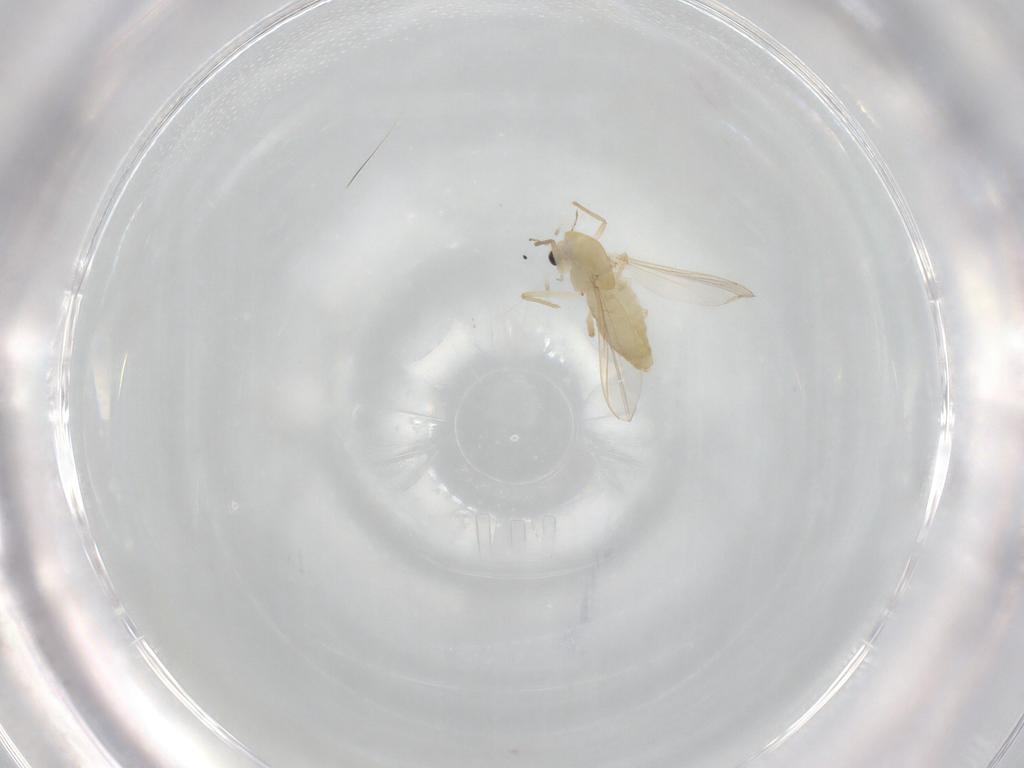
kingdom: Animalia
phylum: Arthropoda
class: Insecta
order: Diptera
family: Chironomidae
